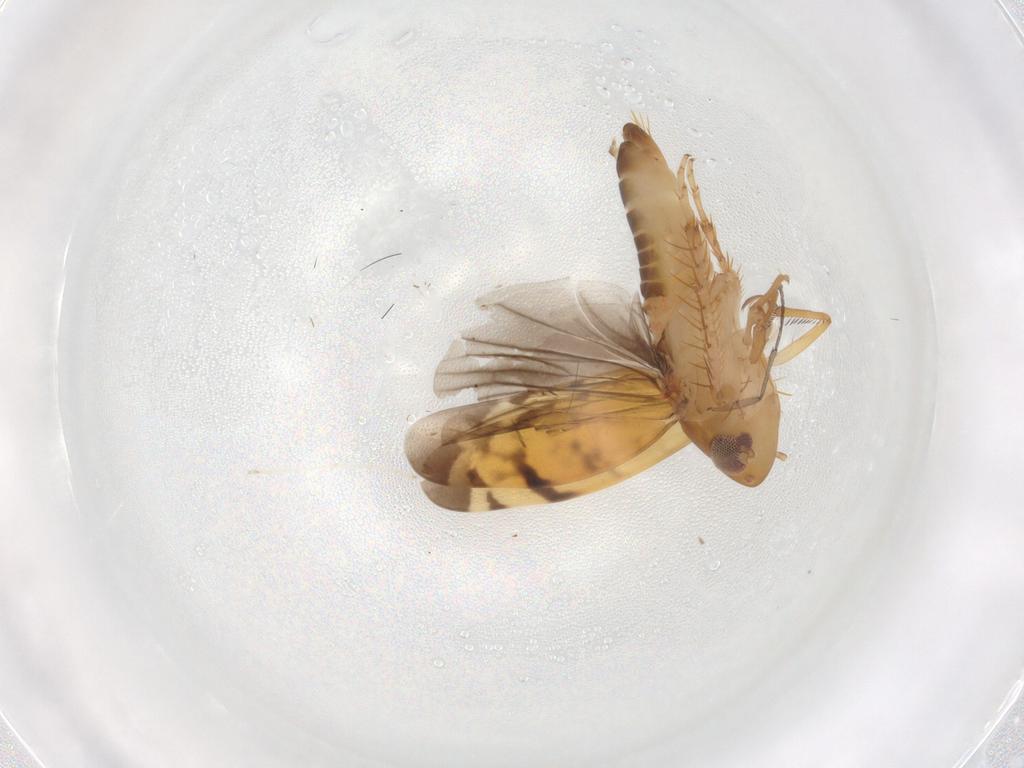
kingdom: Animalia
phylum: Arthropoda
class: Insecta
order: Hemiptera
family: Cicadellidae
